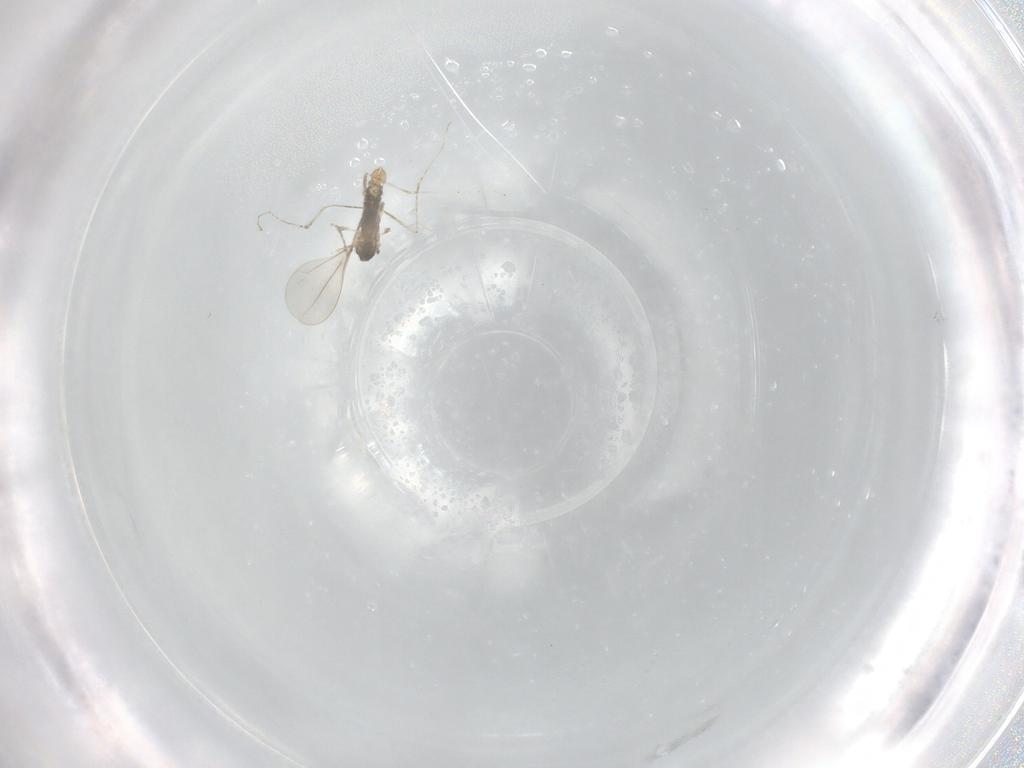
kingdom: Animalia
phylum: Arthropoda
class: Insecta
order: Diptera
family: Cecidomyiidae
